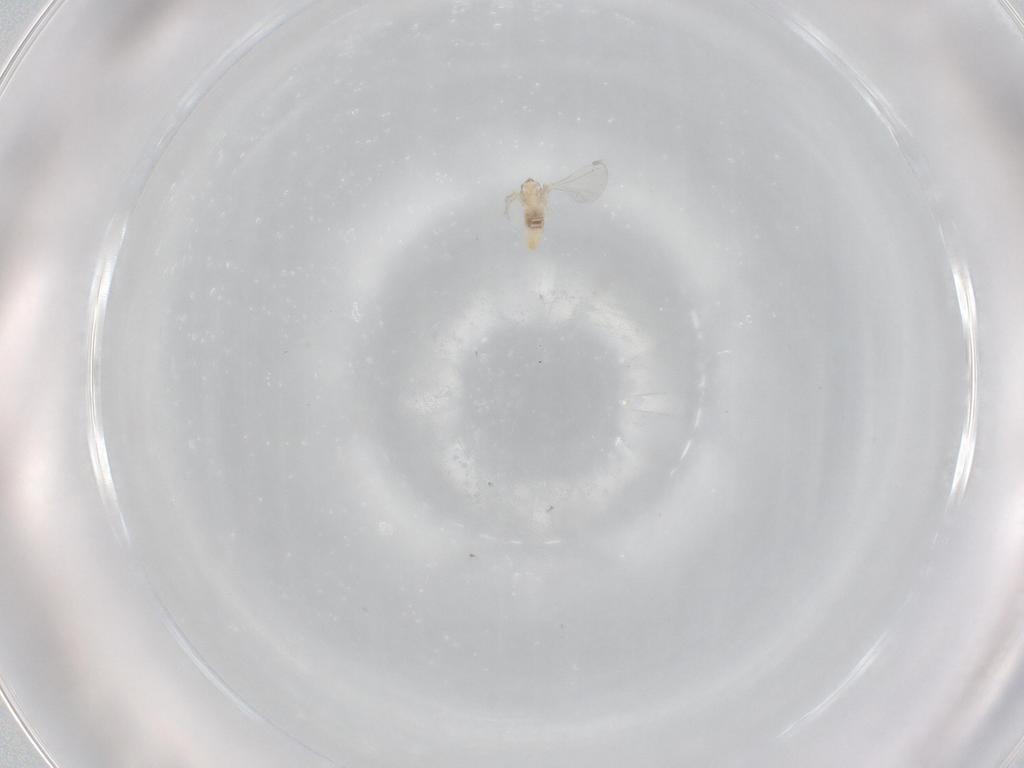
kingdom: Animalia
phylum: Arthropoda
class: Insecta
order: Diptera
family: Cecidomyiidae
